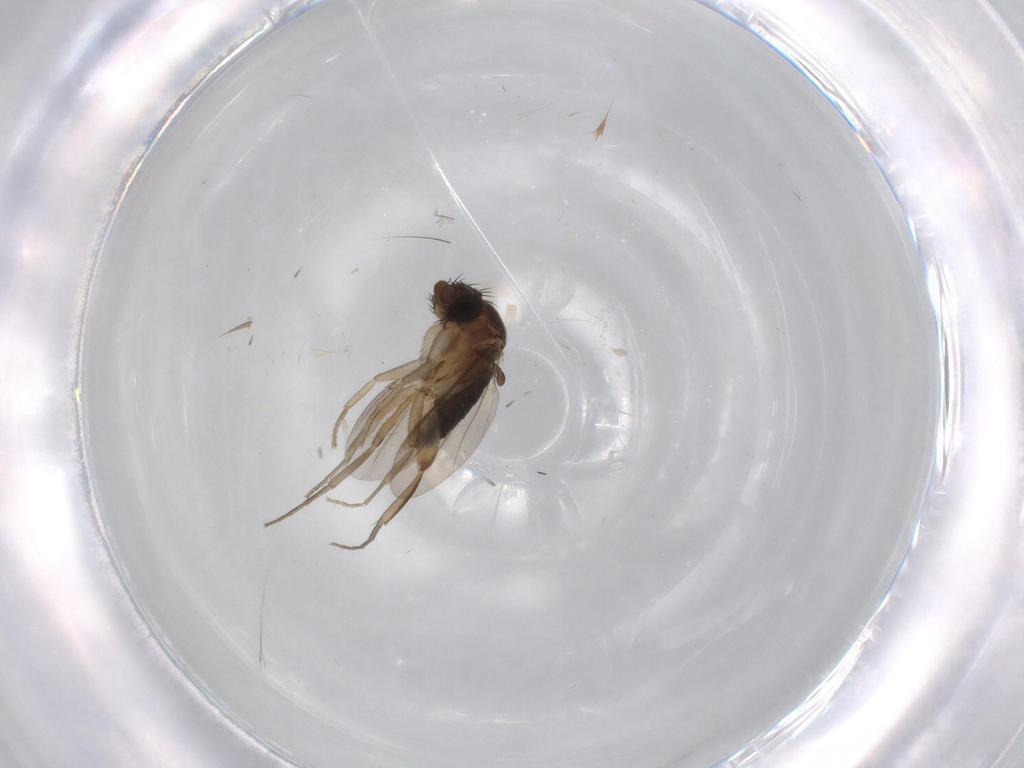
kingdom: Animalia
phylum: Arthropoda
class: Insecta
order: Diptera
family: Phoridae
